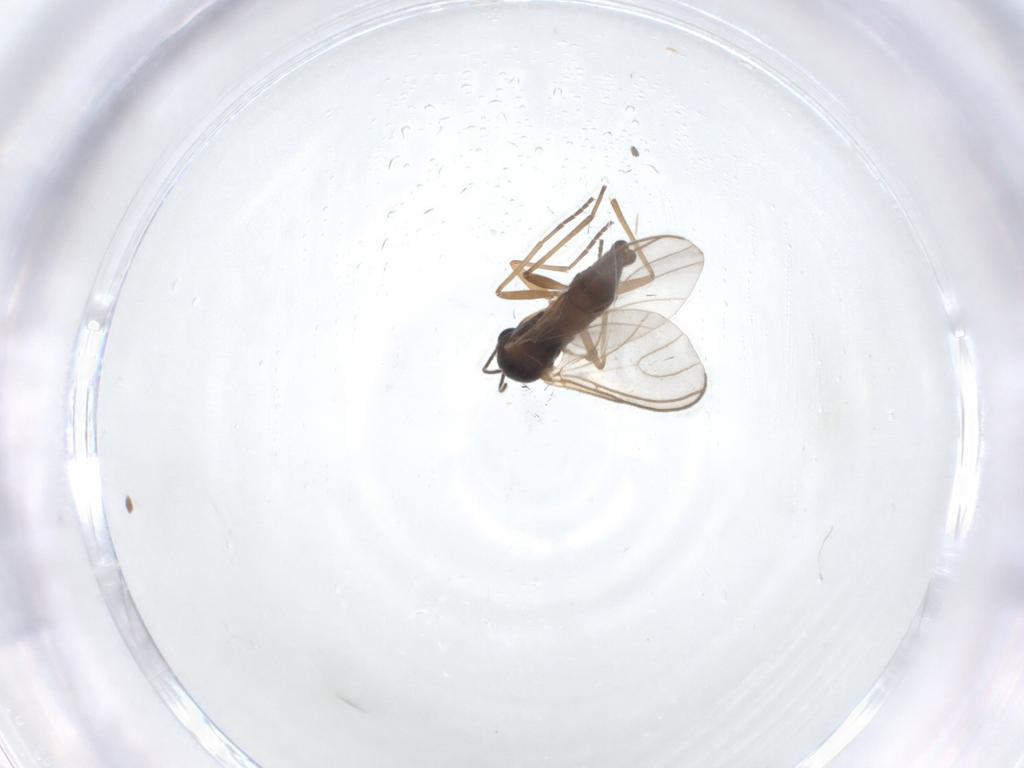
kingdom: Animalia
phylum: Arthropoda
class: Insecta
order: Diptera
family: Sciaridae
